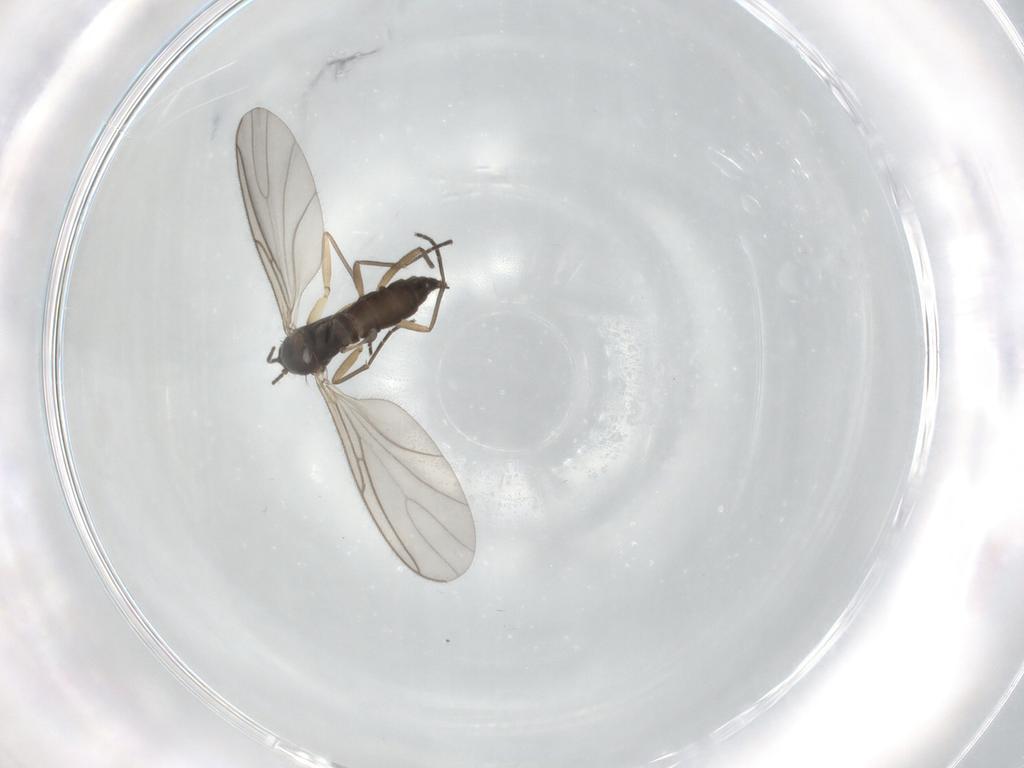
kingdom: Animalia
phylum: Arthropoda
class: Insecta
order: Diptera
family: Sciaridae
